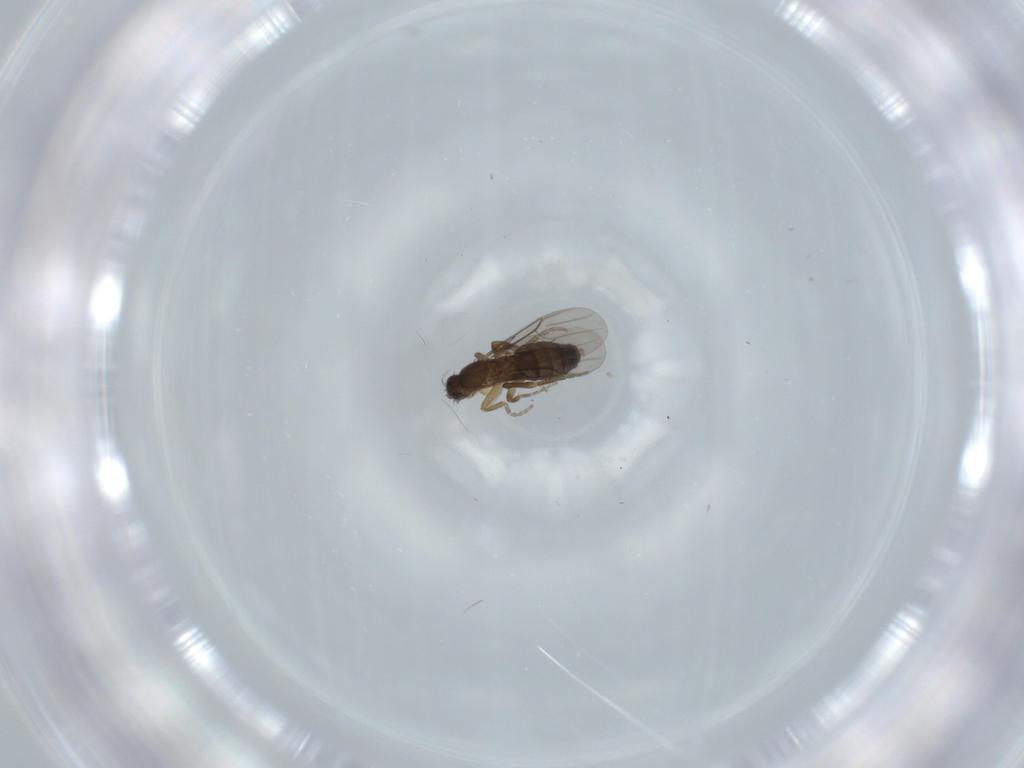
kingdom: Animalia
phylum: Arthropoda
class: Insecta
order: Diptera
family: Phoridae
